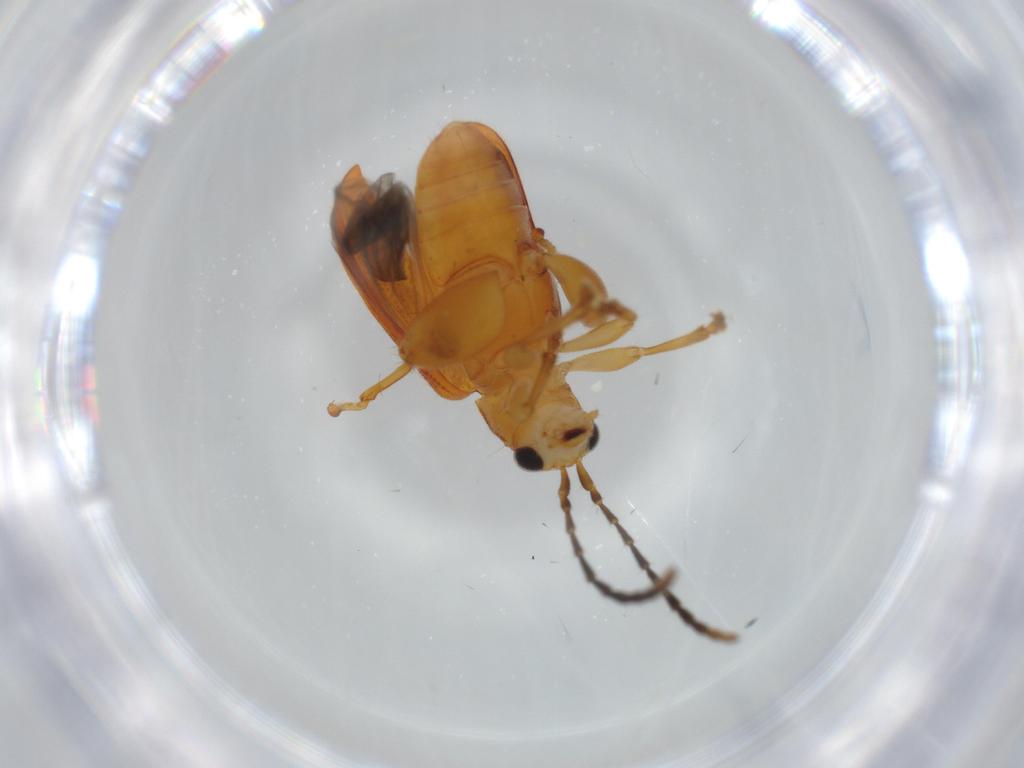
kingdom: Animalia
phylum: Arthropoda
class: Insecta
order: Coleoptera
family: Chrysomelidae
